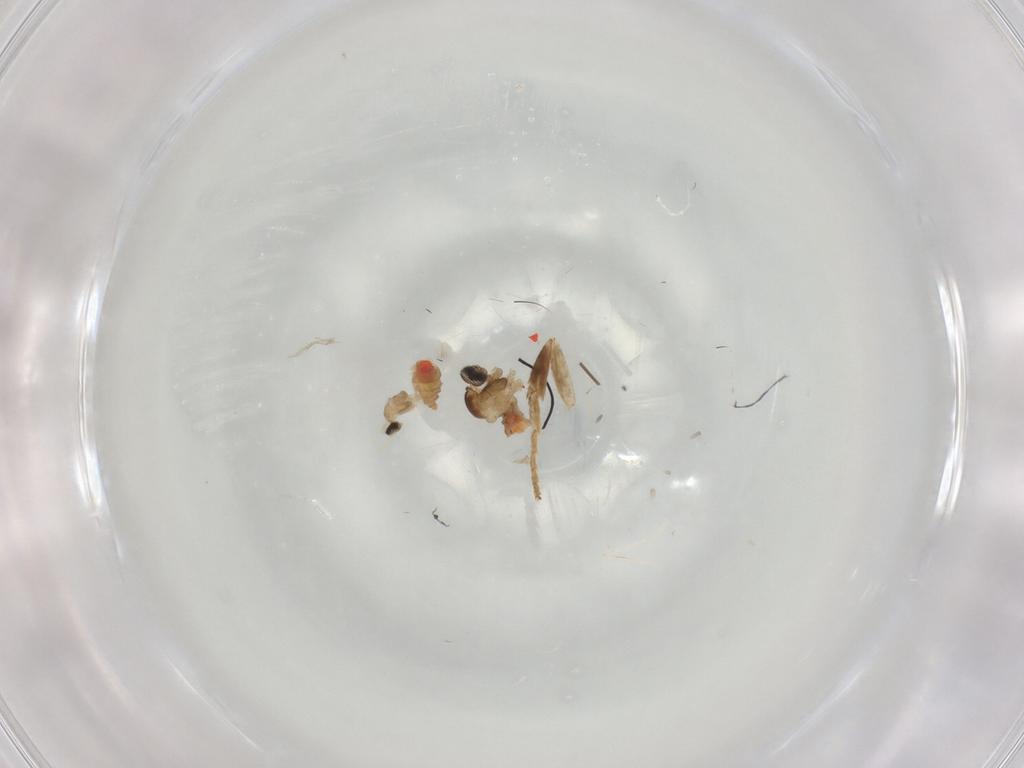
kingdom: Animalia
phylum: Arthropoda
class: Insecta
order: Diptera
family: Cecidomyiidae
